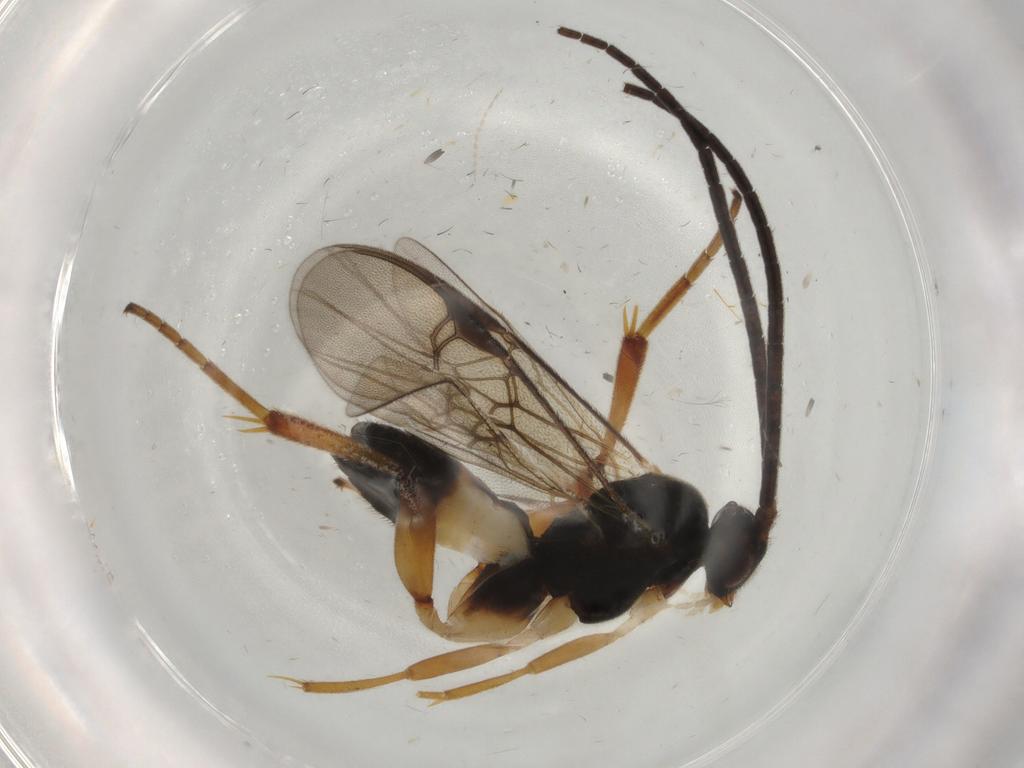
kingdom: Animalia
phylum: Arthropoda
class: Insecta
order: Hymenoptera
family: Braconidae
